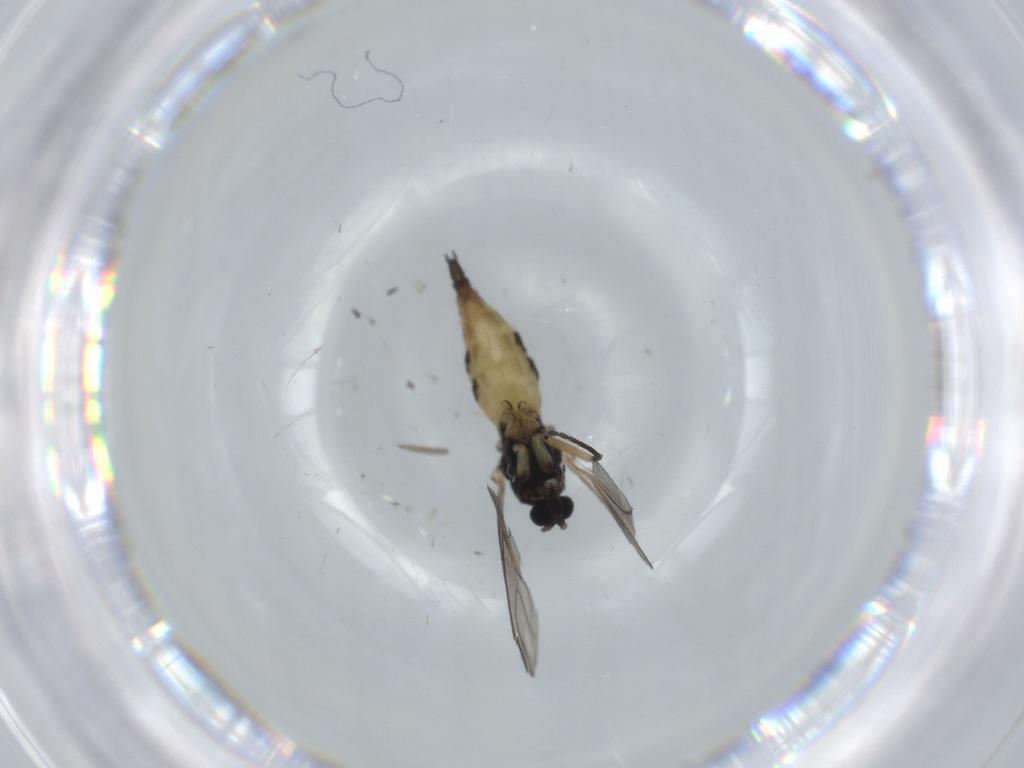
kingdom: Animalia
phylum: Arthropoda
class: Insecta
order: Diptera
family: Sciaridae
